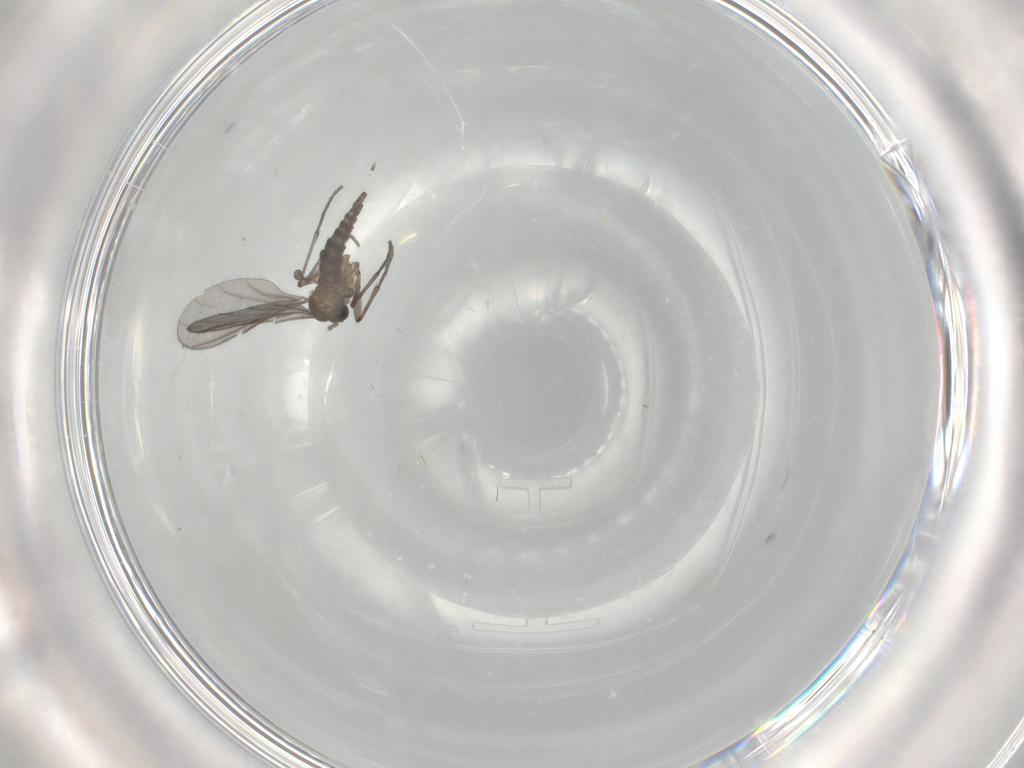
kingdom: Animalia
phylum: Arthropoda
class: Insecta
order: Diptera
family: Sciaridae
